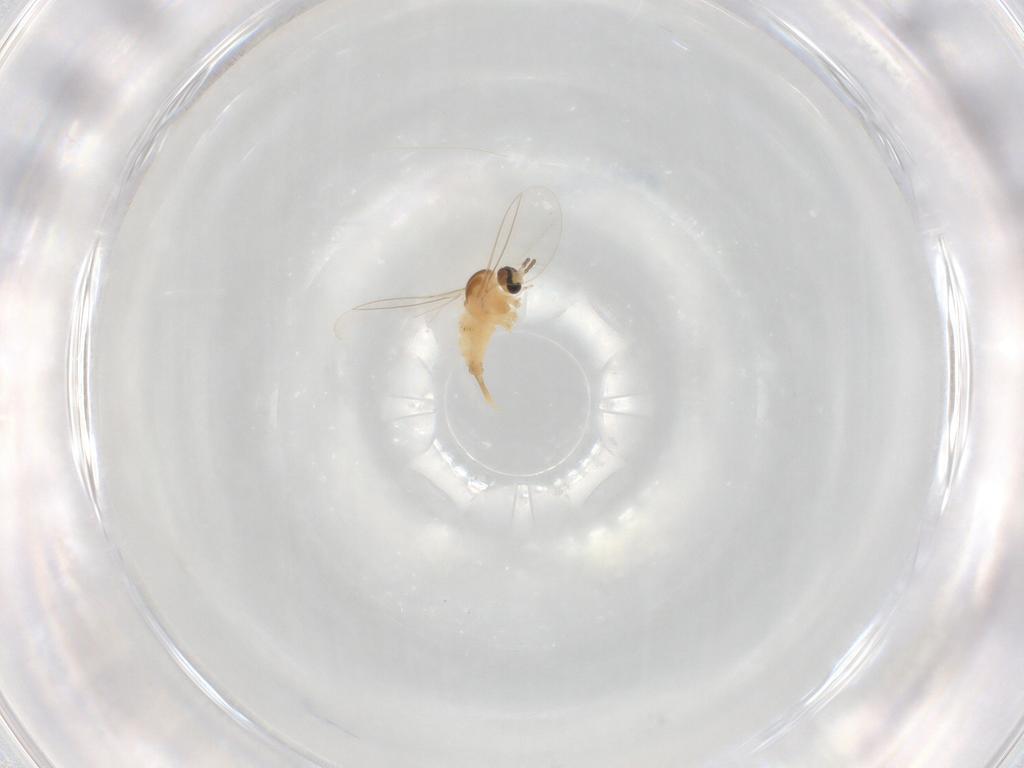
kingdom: Animalia
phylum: Arthropoda
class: Insecta
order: Diptera
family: Cecidomyiidae
